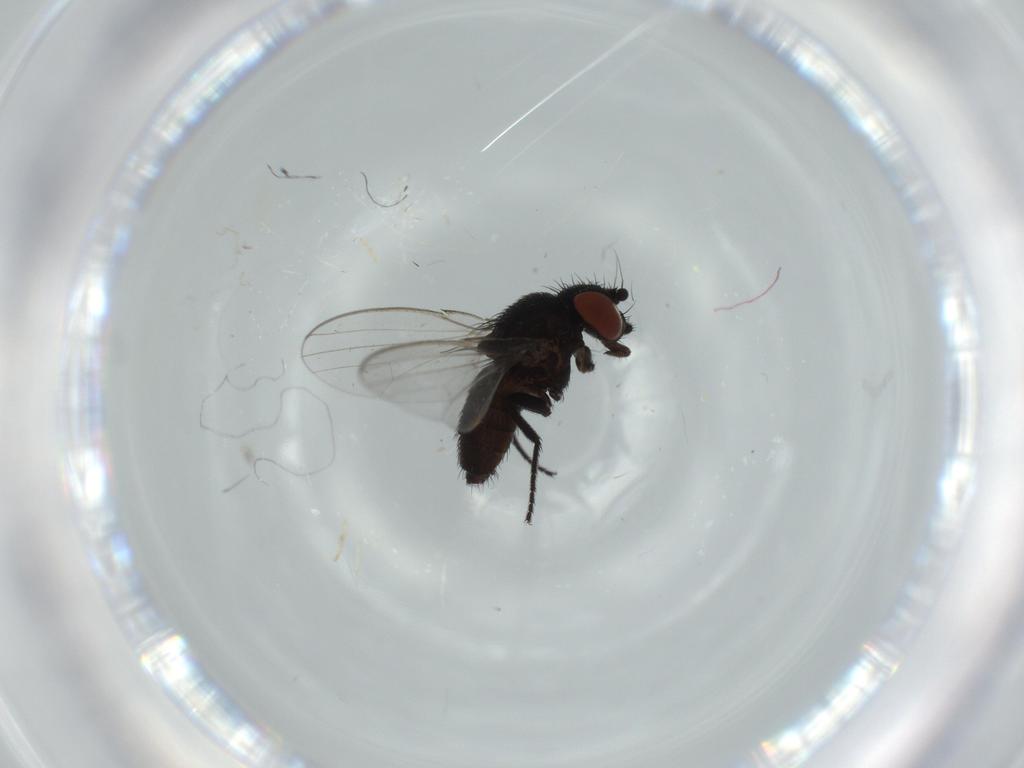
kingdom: Animalia
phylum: Arthropoda
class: Insecta
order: Diptera
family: Milichiidae
